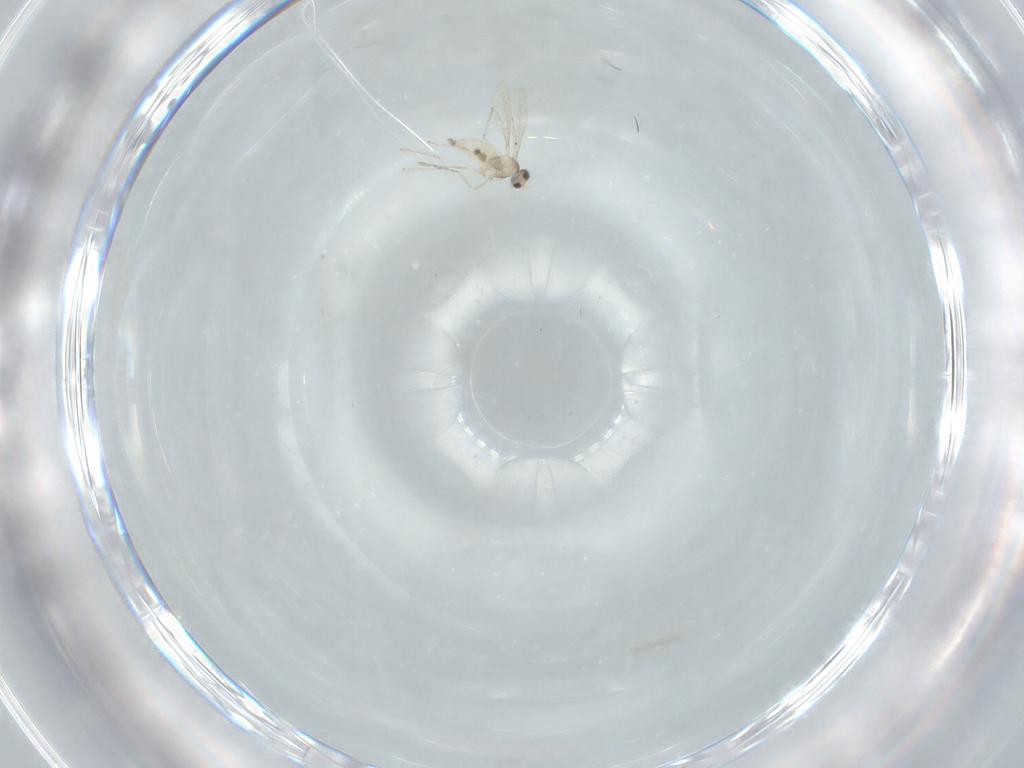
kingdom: Animalia
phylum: Arthropoda
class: Insecta
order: Diptera
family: Cecidomyiidae
